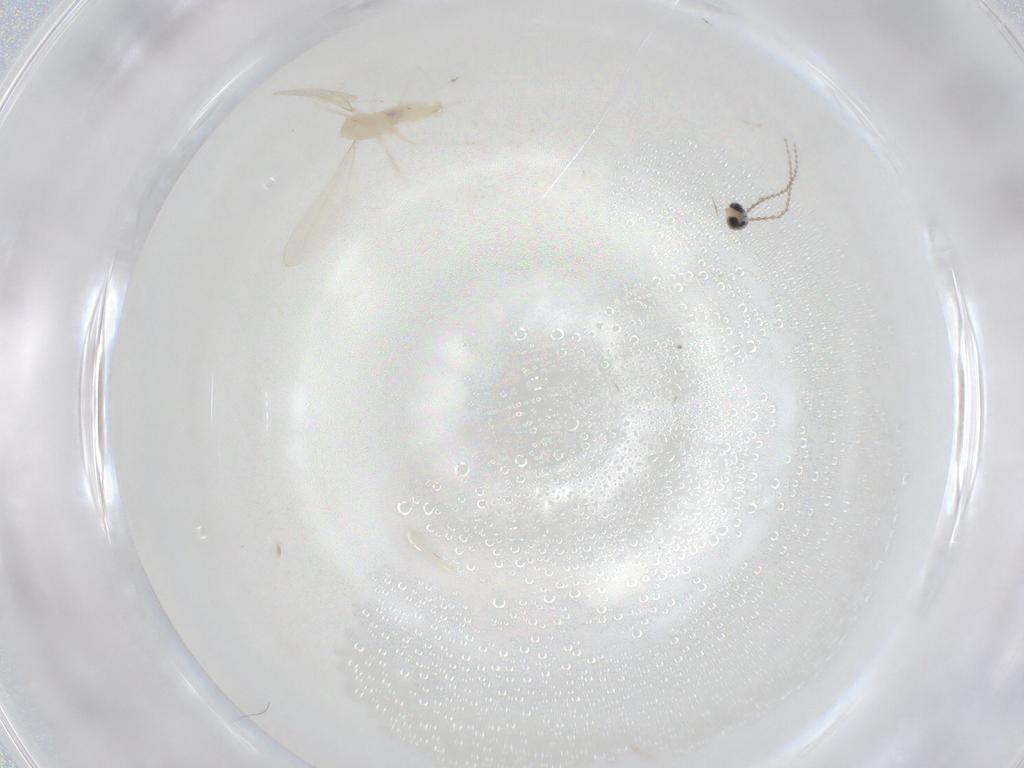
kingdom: Animalia
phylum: Arthropoda
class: Insecta
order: Diptera
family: Cecidomyiidae
